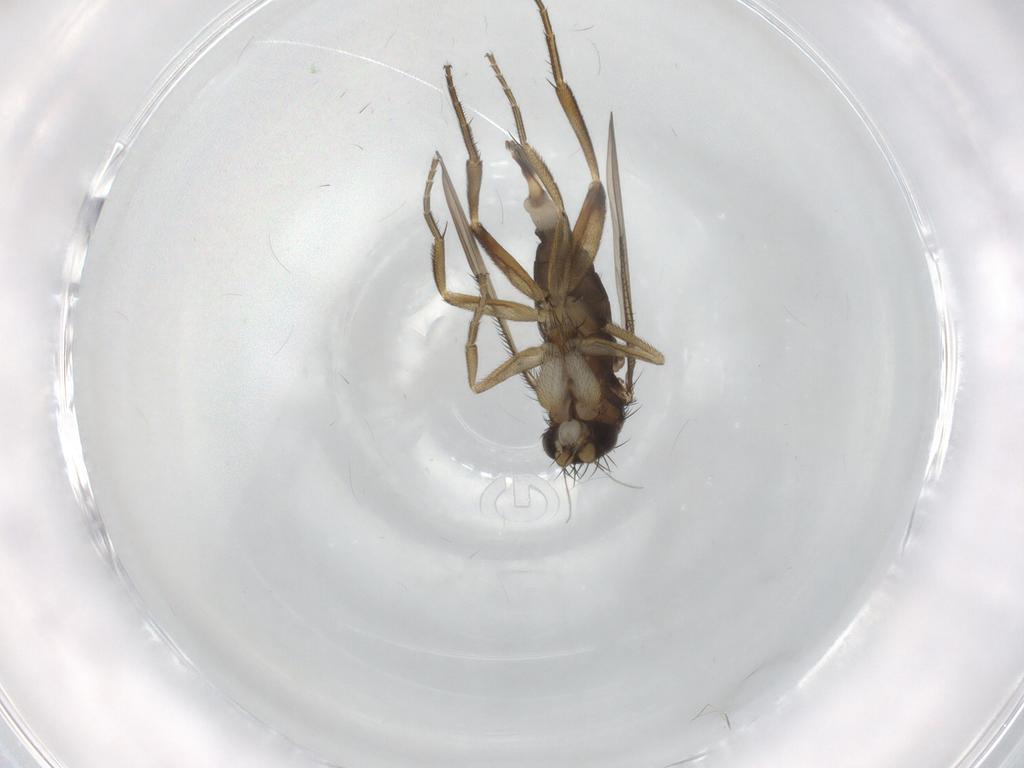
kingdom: Animalia
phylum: Arthropoda
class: Insecta
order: Diptera
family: Phoridae
